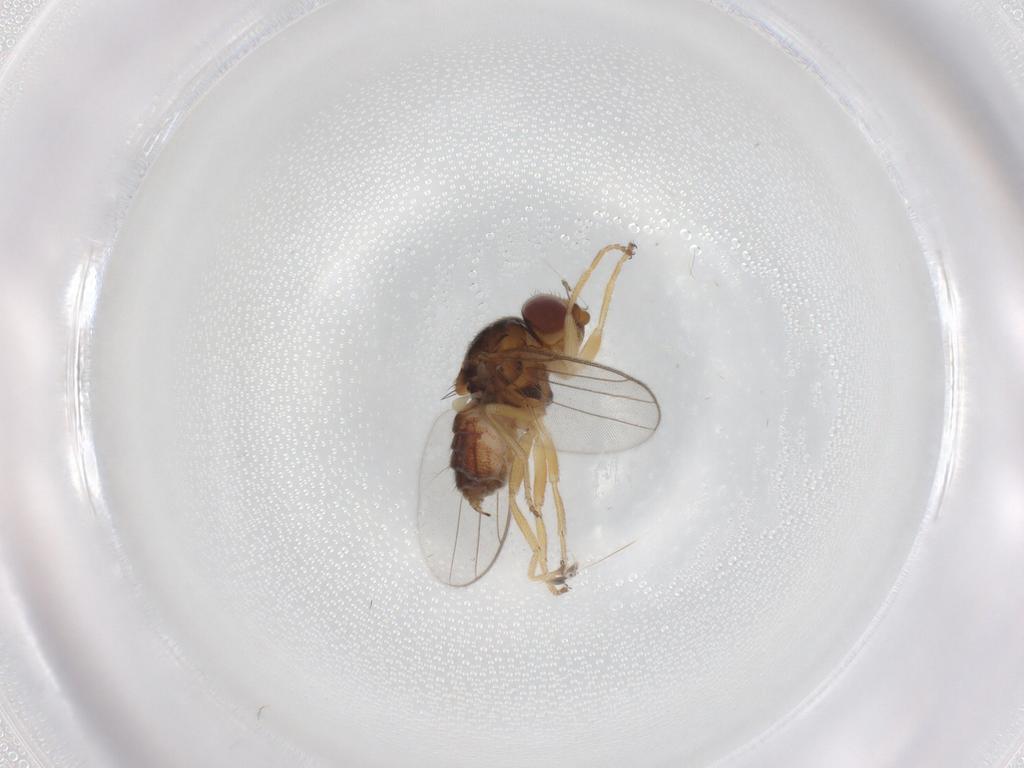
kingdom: Animalia
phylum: Arthropoda
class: Insecta
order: Diptera
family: Chloropidae
